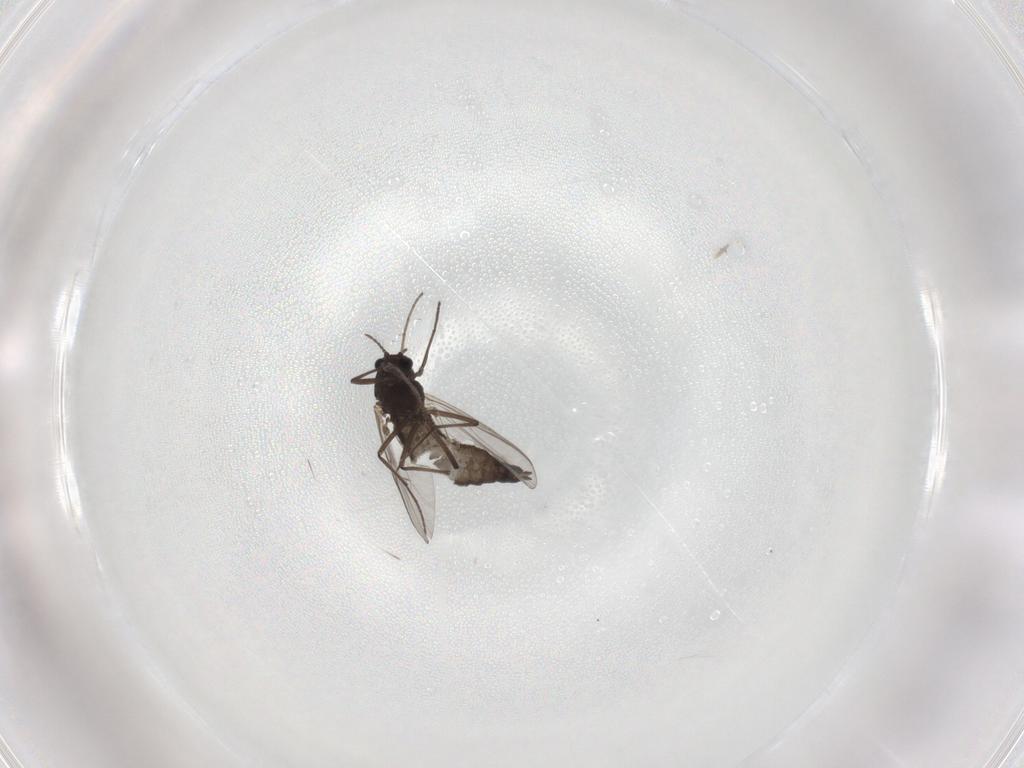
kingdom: Animalia
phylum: Arthropoda
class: Insecta
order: Diptera
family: Chironomidae
